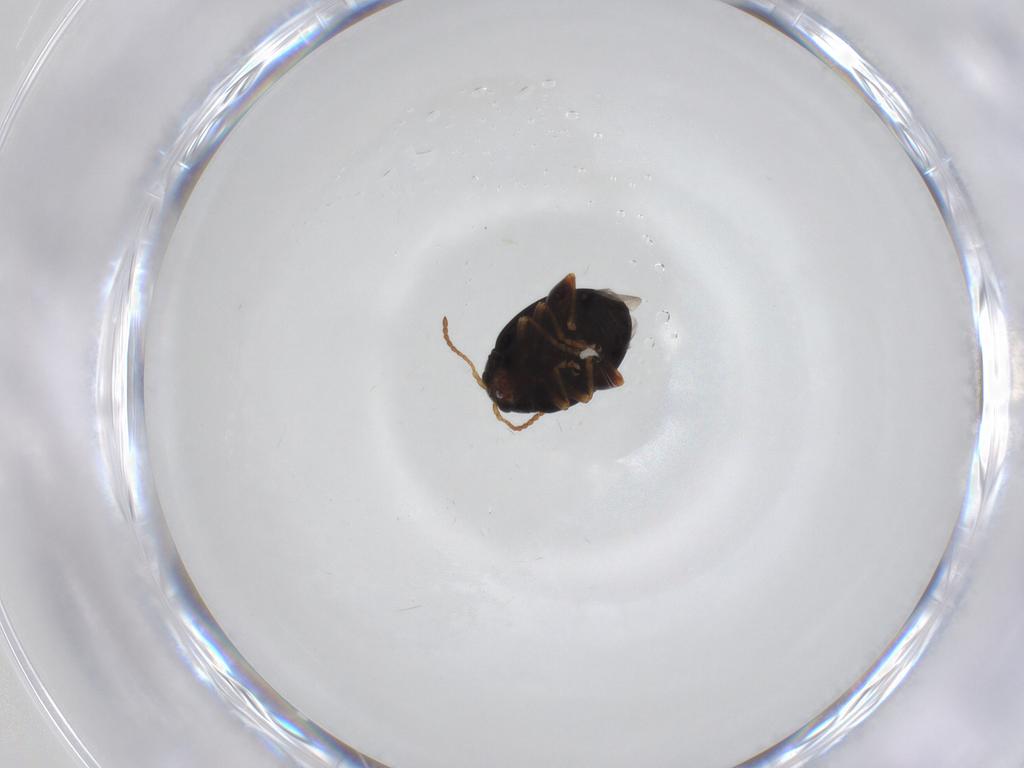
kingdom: Animalia
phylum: Arthropoda
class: Insecta
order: Coleoptera
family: Chrysomelidae
